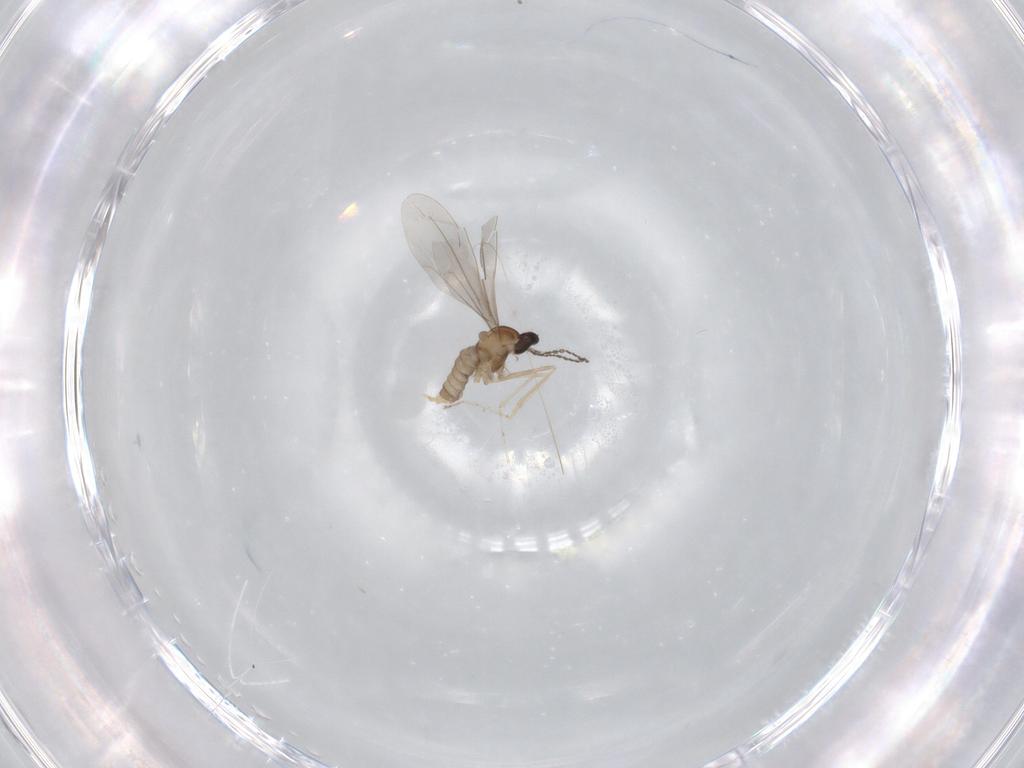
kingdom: Animalia
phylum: Arthropoda
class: Insecta
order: Diptera
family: Cecidomyiidae
